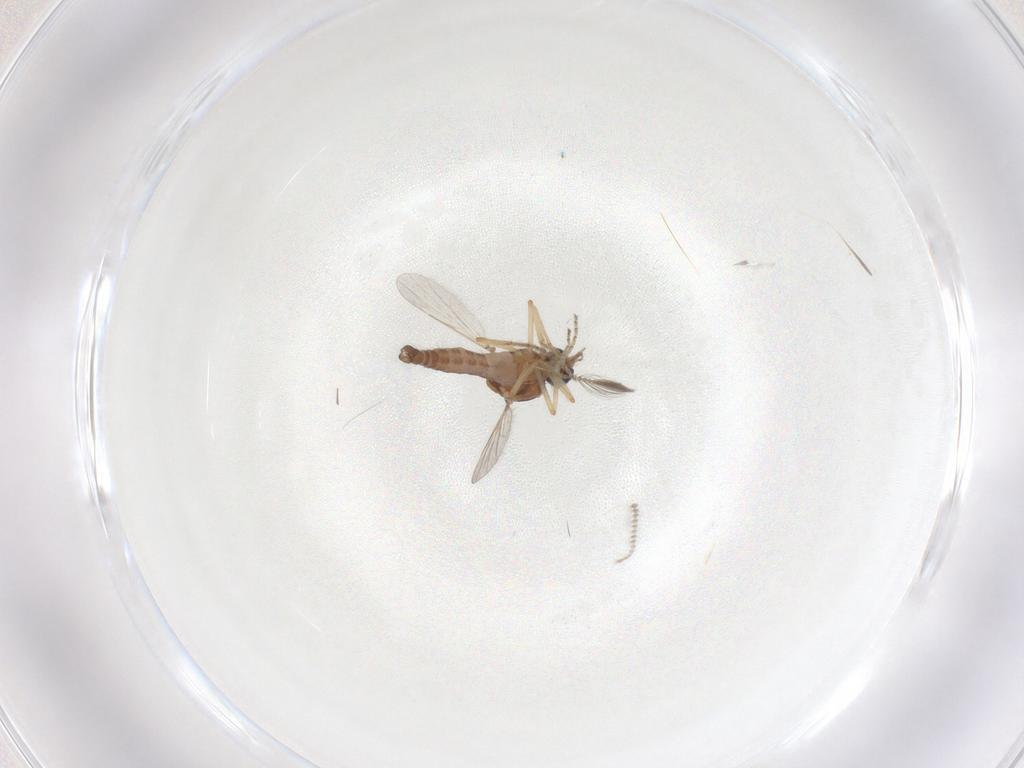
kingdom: Animalia
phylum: Arthropoda
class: Insecta
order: Diptera
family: Ceratopogonidae
